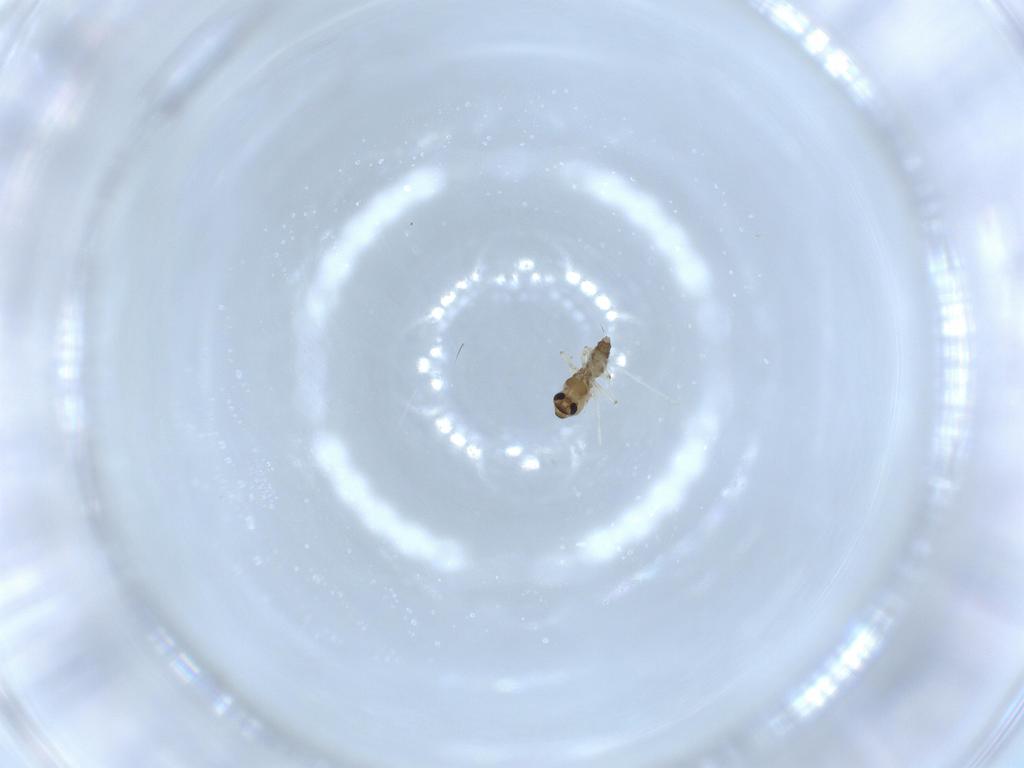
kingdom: Animalia
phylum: Arthropoda
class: Insecta
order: Diptera
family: Chironomidae
